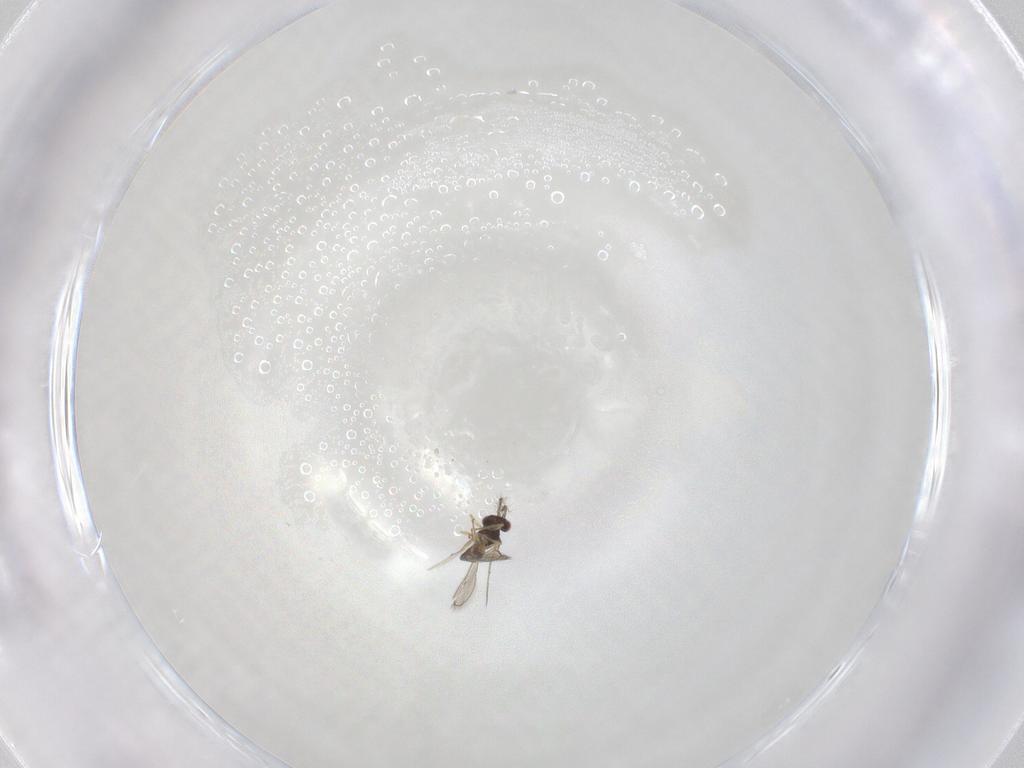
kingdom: Animalia
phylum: Arthropoda
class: Insecta
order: Hymenoptera
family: Eulophidae
